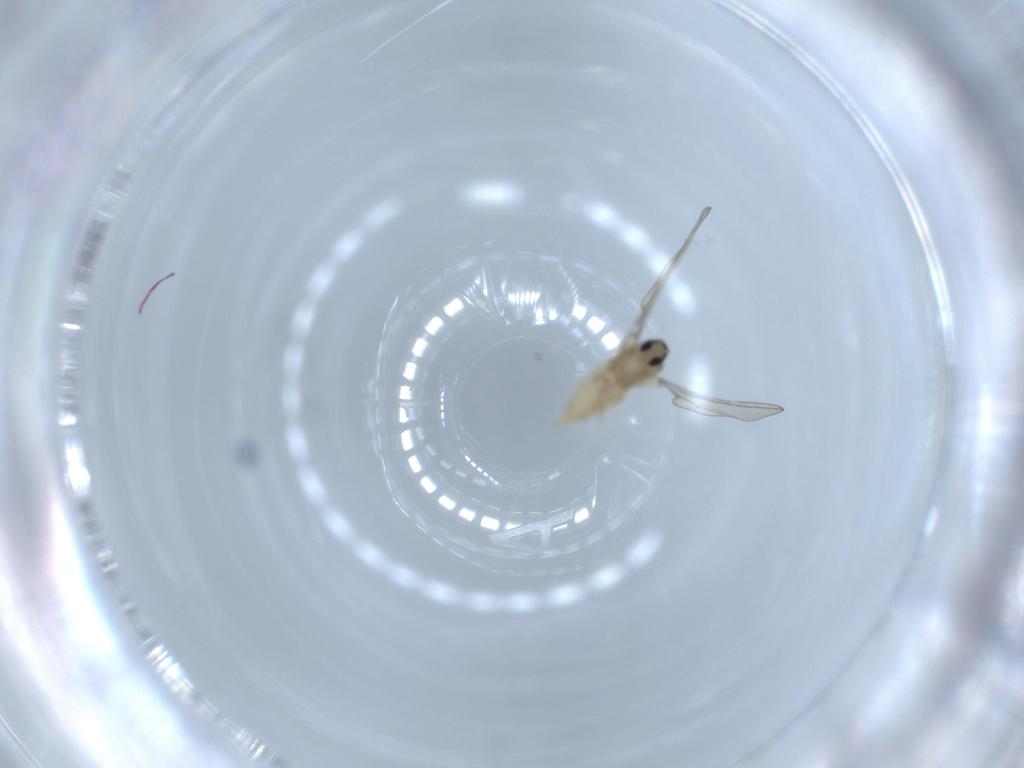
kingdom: Animalia
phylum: Arthropoda
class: Insecta
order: Diptera
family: Cecidomyiidae
